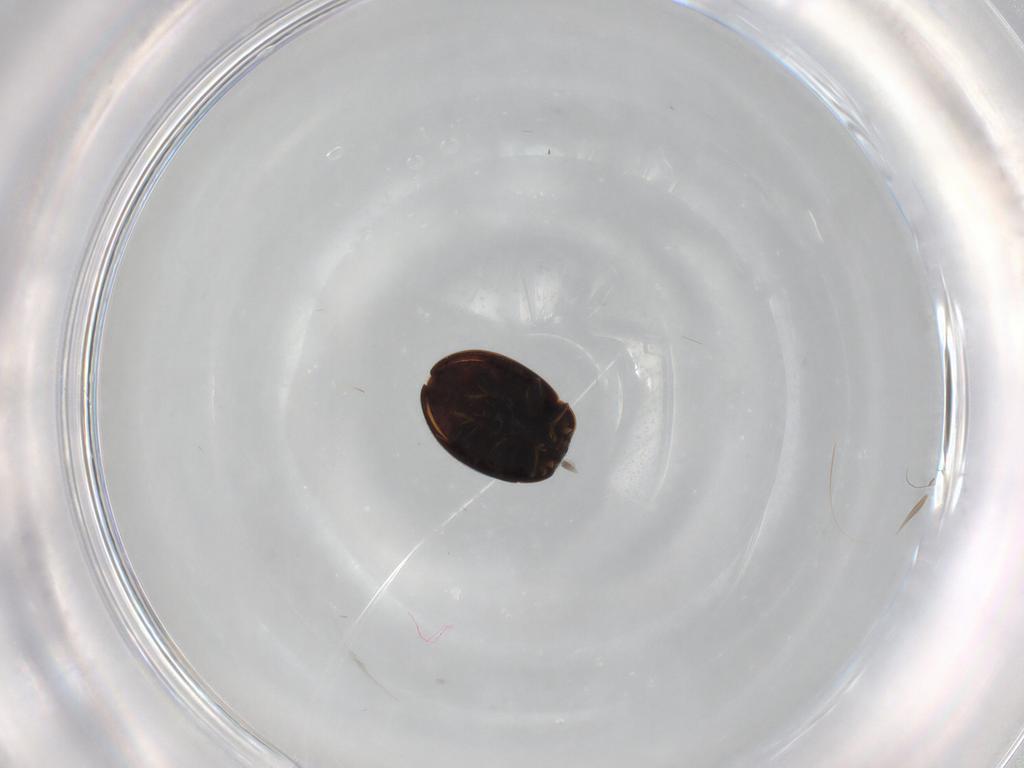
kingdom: Animalia
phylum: Arthropoda
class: Insecta
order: Coleoptera
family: Coccinellidae
